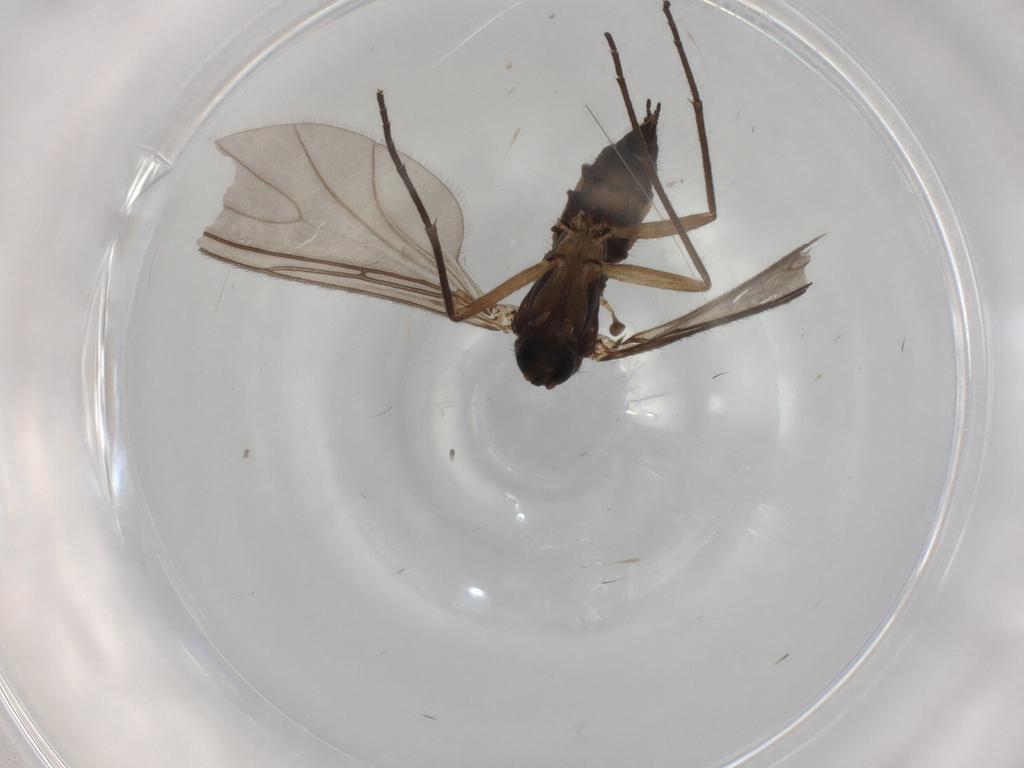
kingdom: Animalia
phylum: Arthropoda
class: Insecta
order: Diptera
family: Sciaridae
